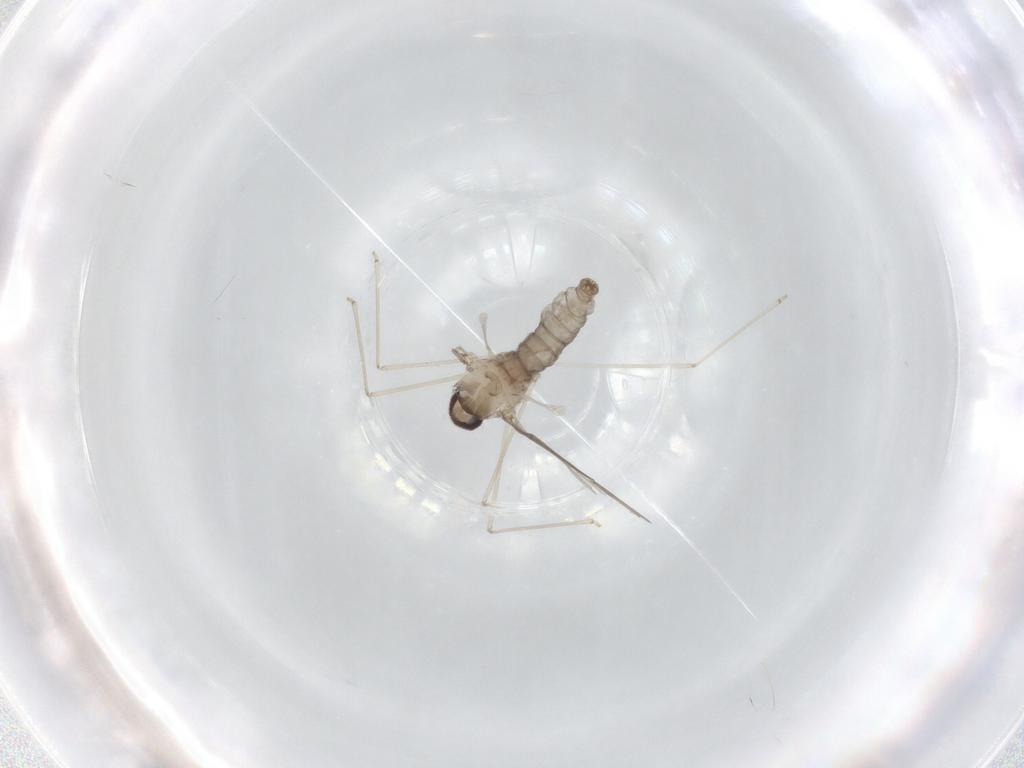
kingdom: Animalia
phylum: Arthropoda
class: Insecta
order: Diptera
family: Cecidomyiidae
